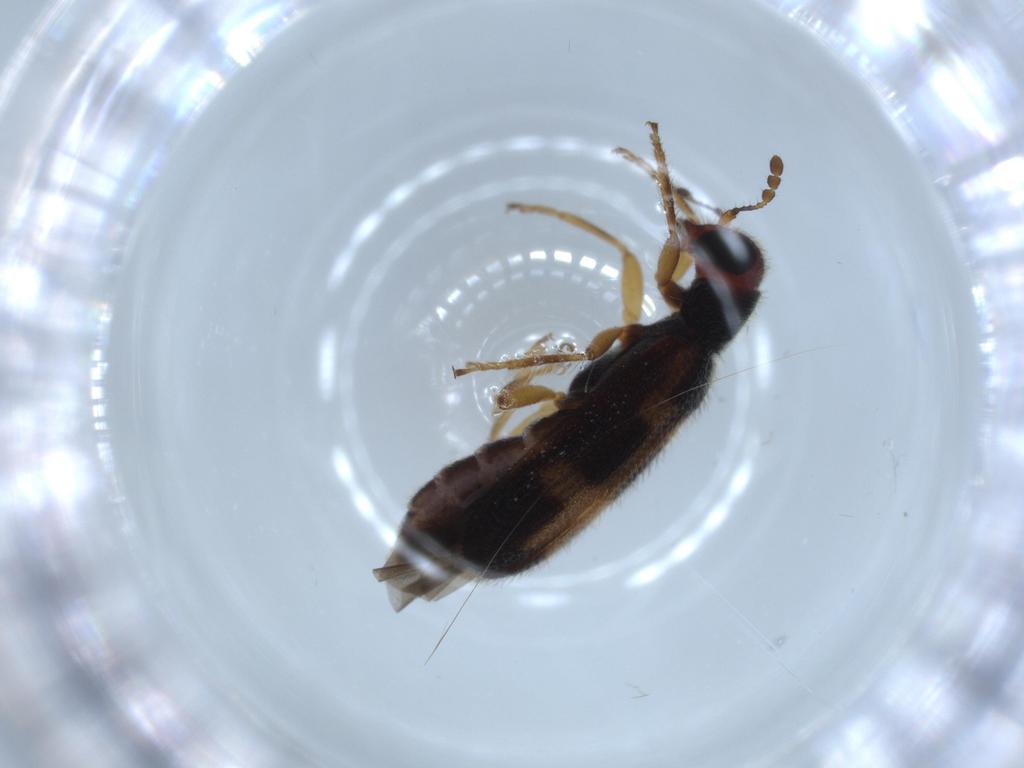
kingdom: Animalia
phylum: Arthropoda
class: Insecta
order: Coleoptera
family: Cleridae
